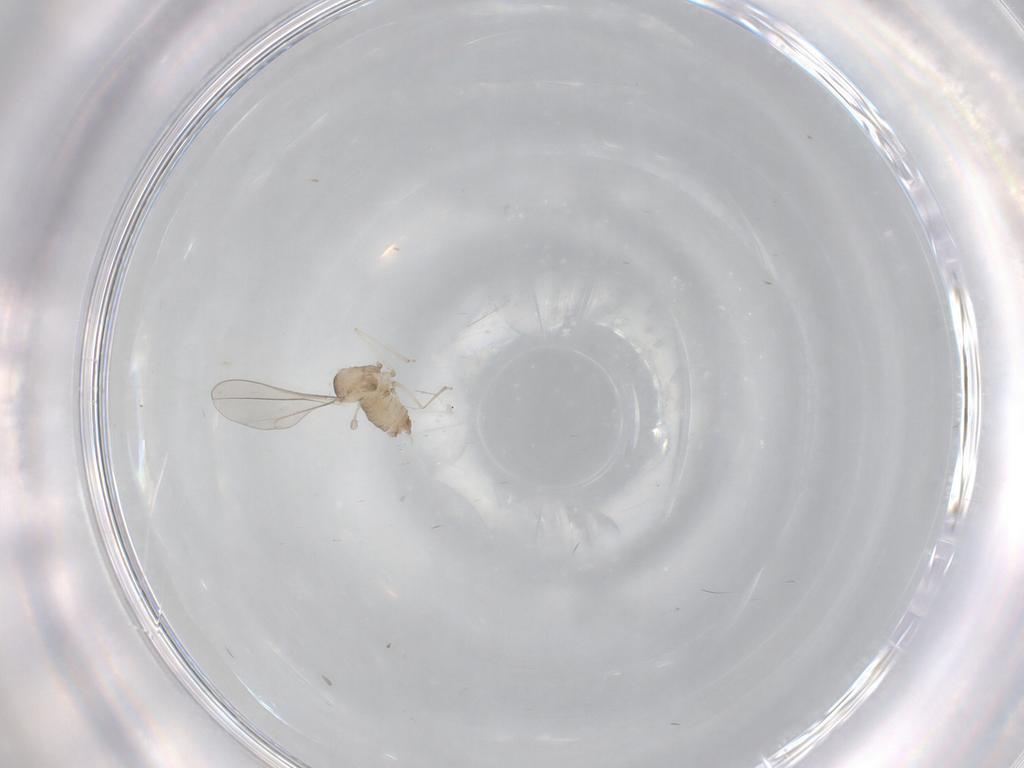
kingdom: Animalia
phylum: Arthropoda
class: Insecta
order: Diptera
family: Cecidomyiidae
